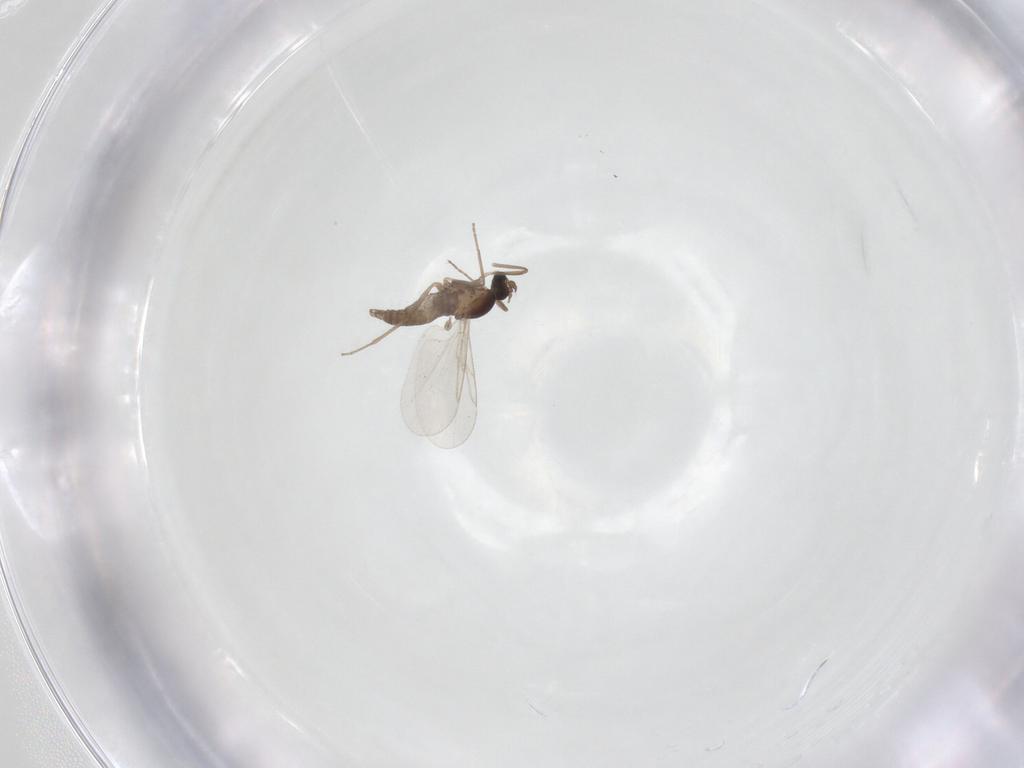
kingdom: Animalia
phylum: Arthropoda
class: Insecta
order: Diptera
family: Cecidomyiidae
